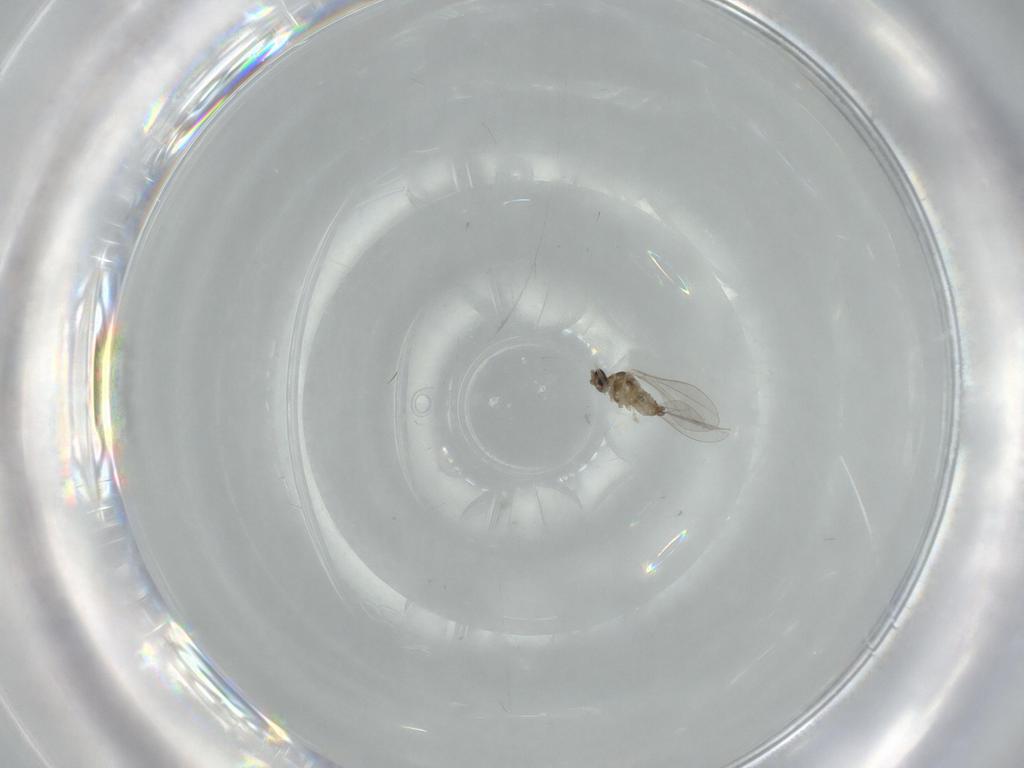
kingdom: Animalia
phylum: Arthropoda
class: Insecta
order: Diptera
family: Cecidomyiidae
